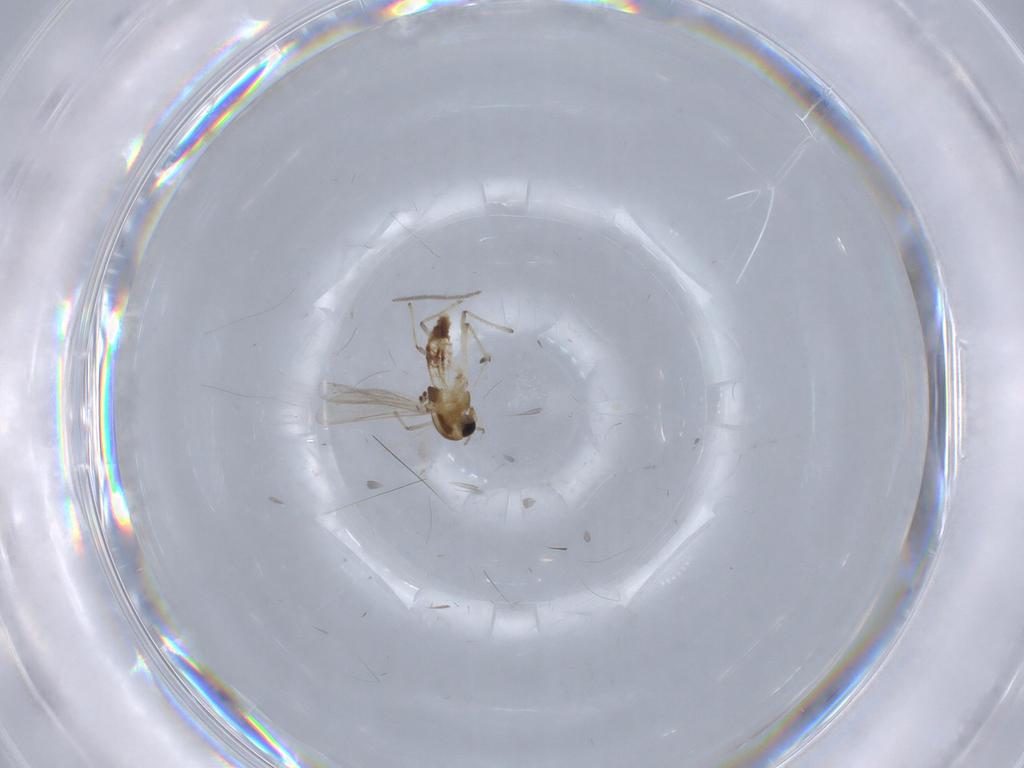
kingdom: Animalia
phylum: Arthropoda
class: Insecta
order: Diptera
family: Cecidomyiidae
